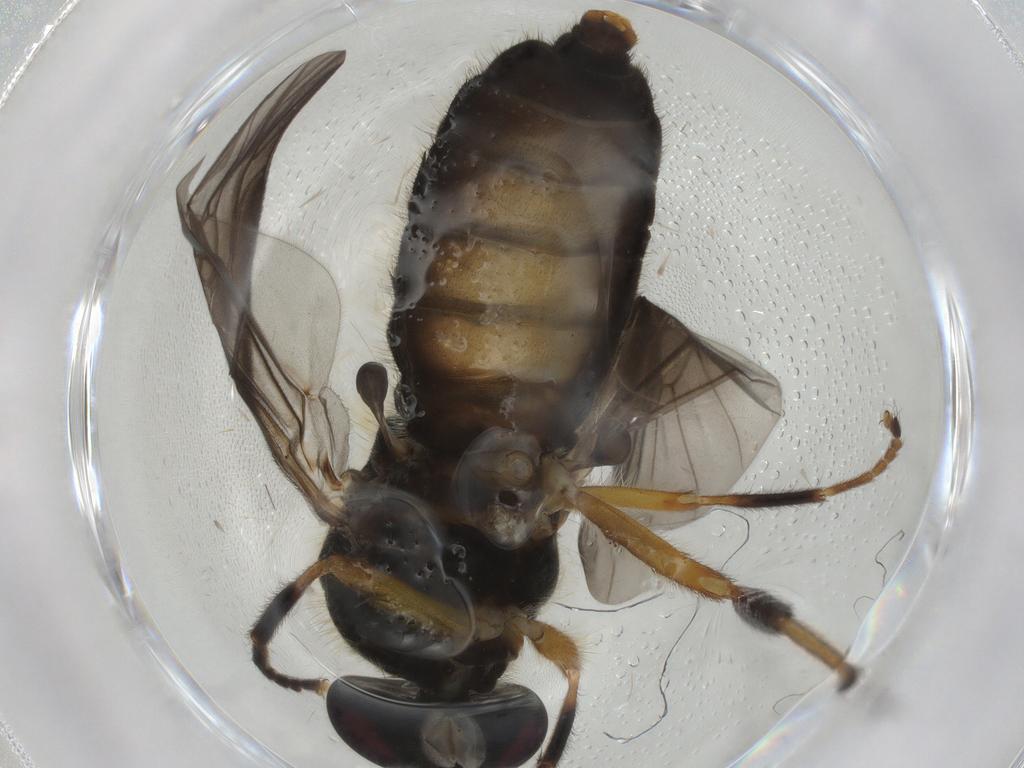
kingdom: Animalia
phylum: Arthropoda
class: Insecta
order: Diptera
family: Stratiomyidae
